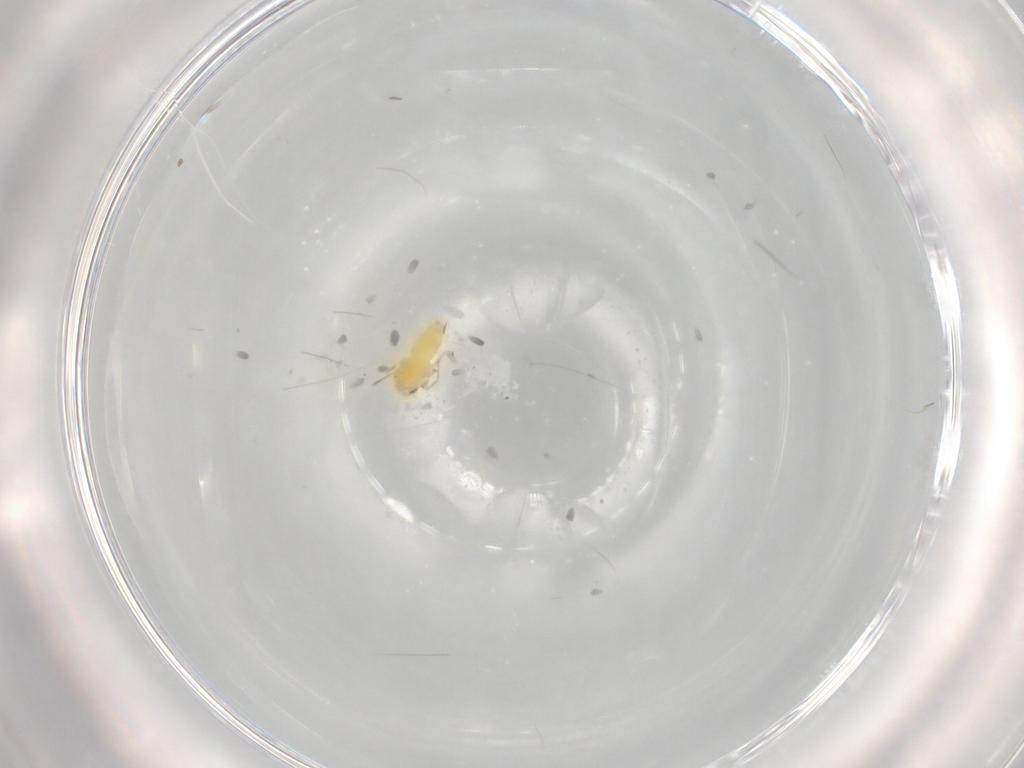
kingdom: Animalia
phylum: Arthropoda
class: Insecta
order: Hemiptera
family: Aleyrodidae
